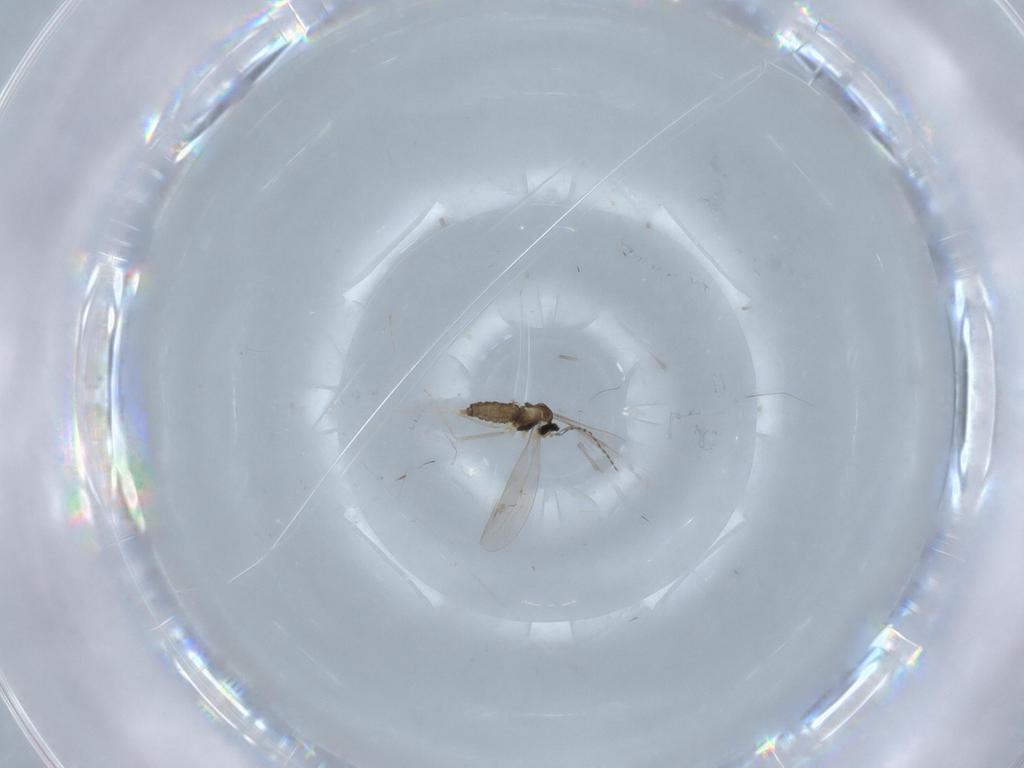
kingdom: Animalia
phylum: Arthropoda
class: Insecta
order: Diptera
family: Cecidomyiidae
